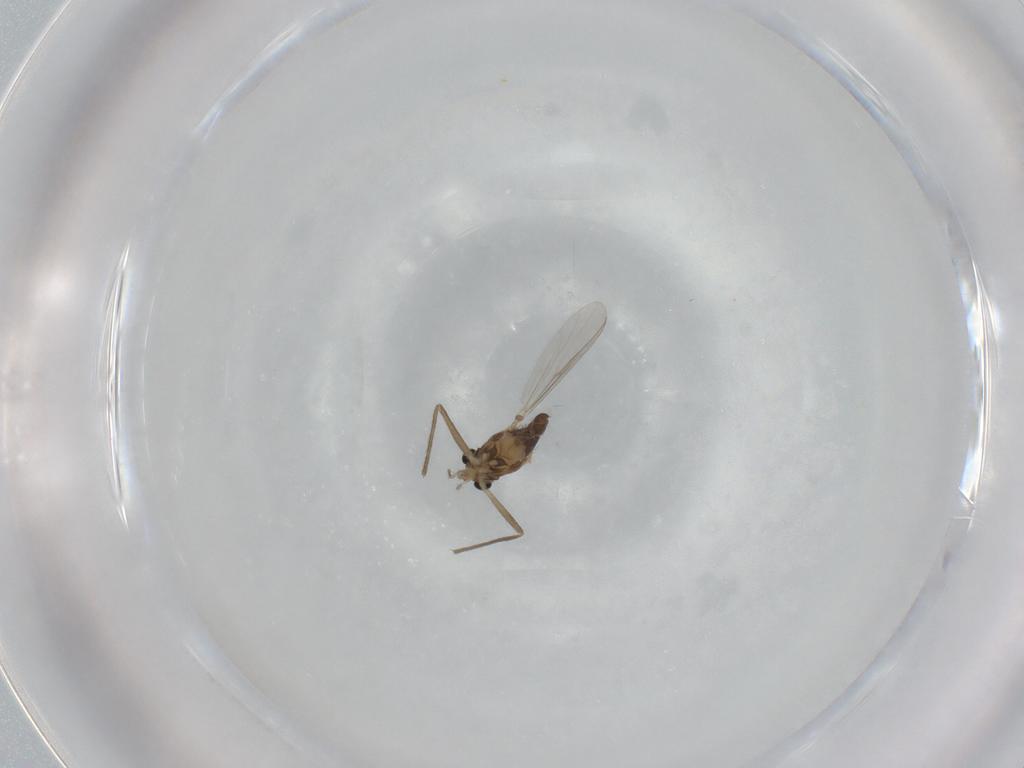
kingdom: Animalia
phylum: Arthropoda
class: Insecta
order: Diptera
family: Chironomidae
